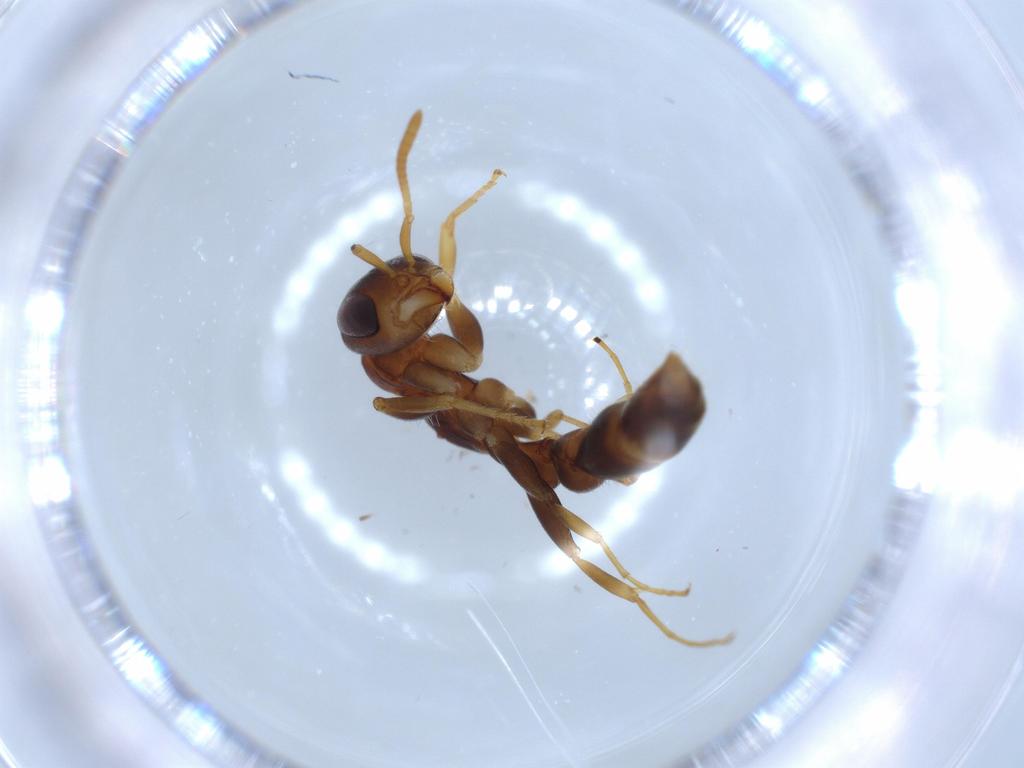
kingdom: Animalia
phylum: Arthropoda
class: Insecta
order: Hymenoptera
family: Formicidae
